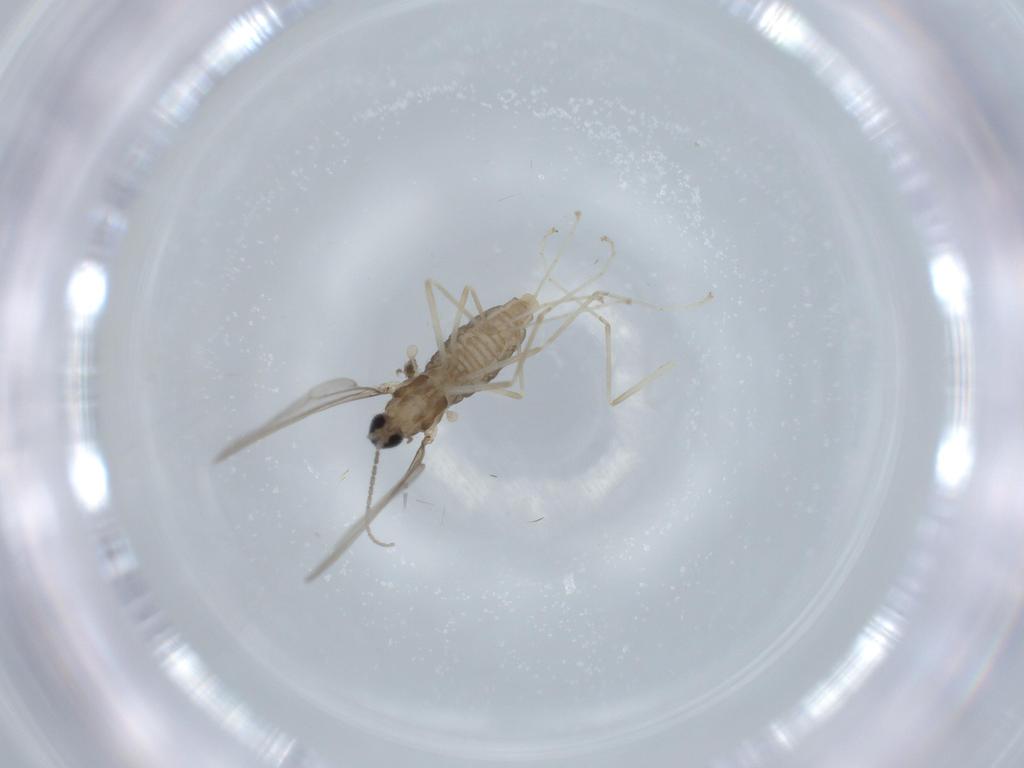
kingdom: Animalia
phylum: Arthropoda
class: Insecta
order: Diptera
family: Cecidomyiidae
